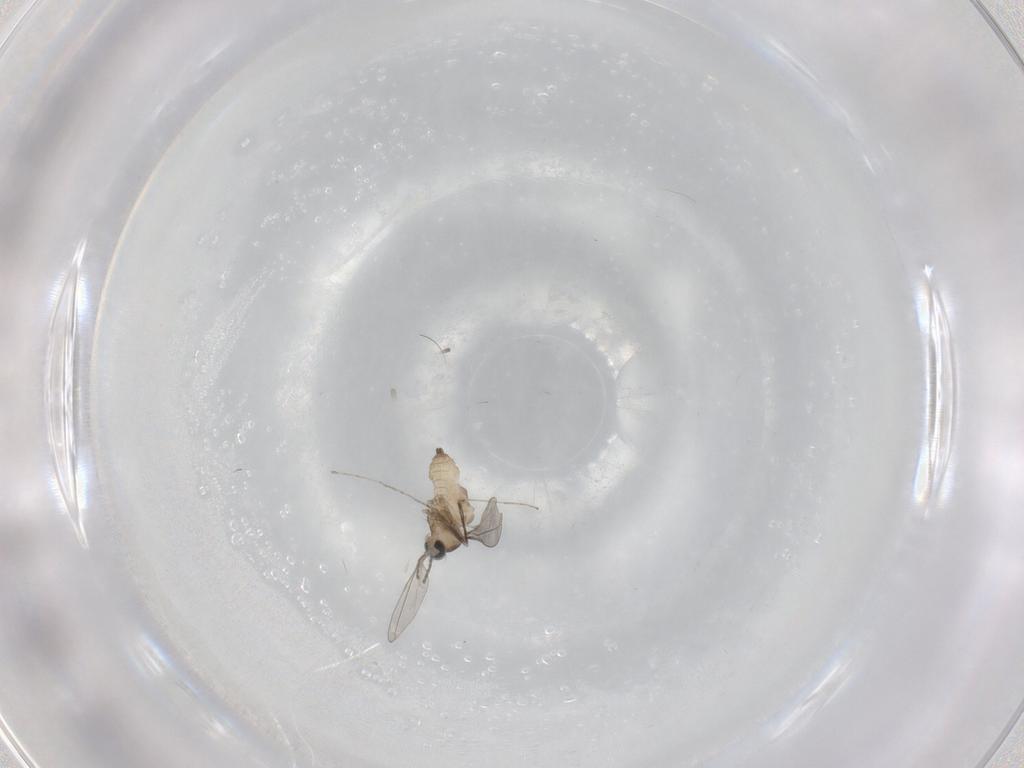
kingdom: Animalia
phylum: Arthropoda
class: Insecta
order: Diptera
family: Cecidomyiidae
